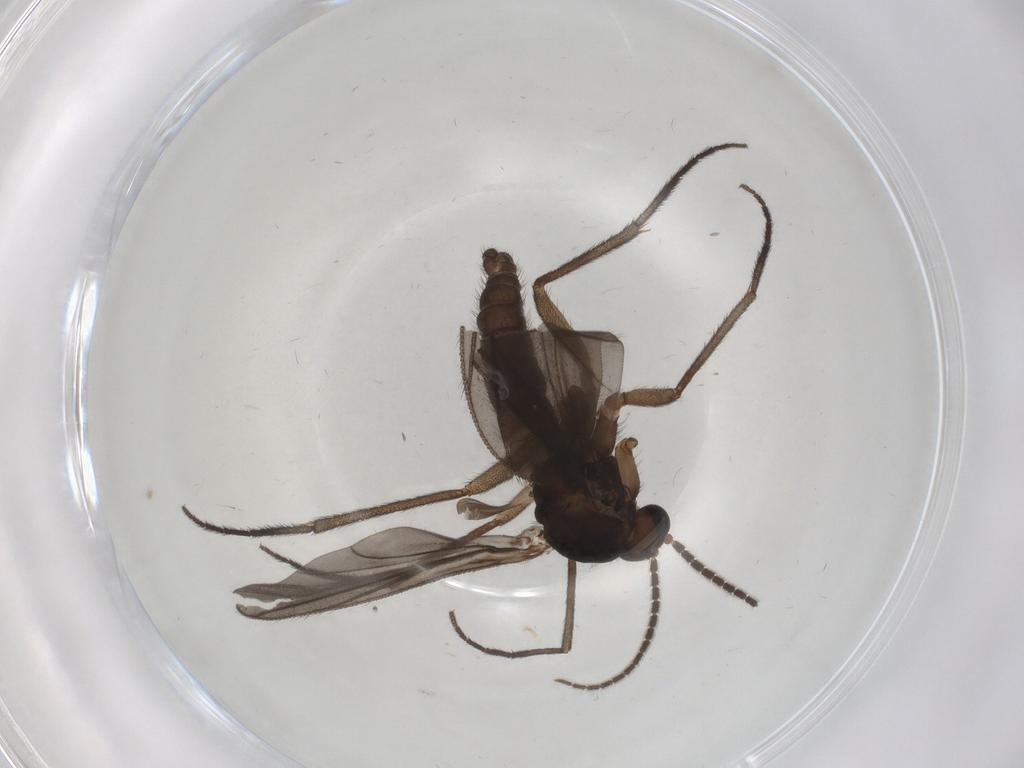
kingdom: Animalia
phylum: Arthropoda
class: Insecta
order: Diptera
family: Sciaridae
